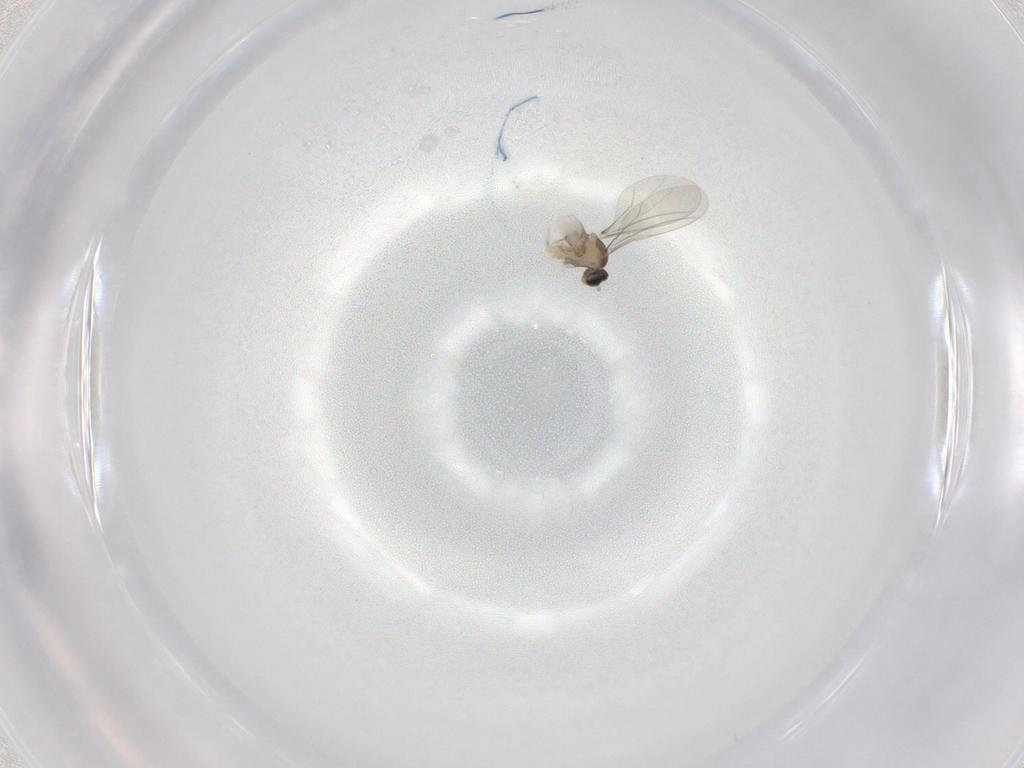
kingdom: Animalia
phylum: Arthropoda
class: Insecta
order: Diptera
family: Cecidomyiidae
